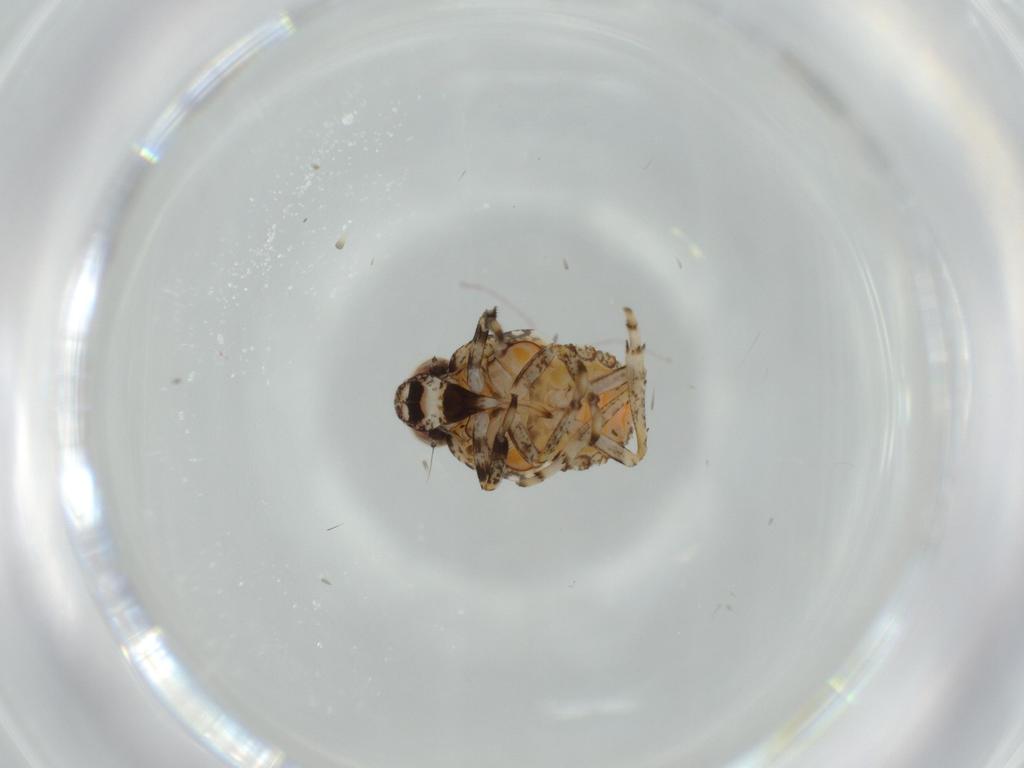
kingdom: Animalia
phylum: Arthropoda
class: Insecta
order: Hemiptera
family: Issidae
